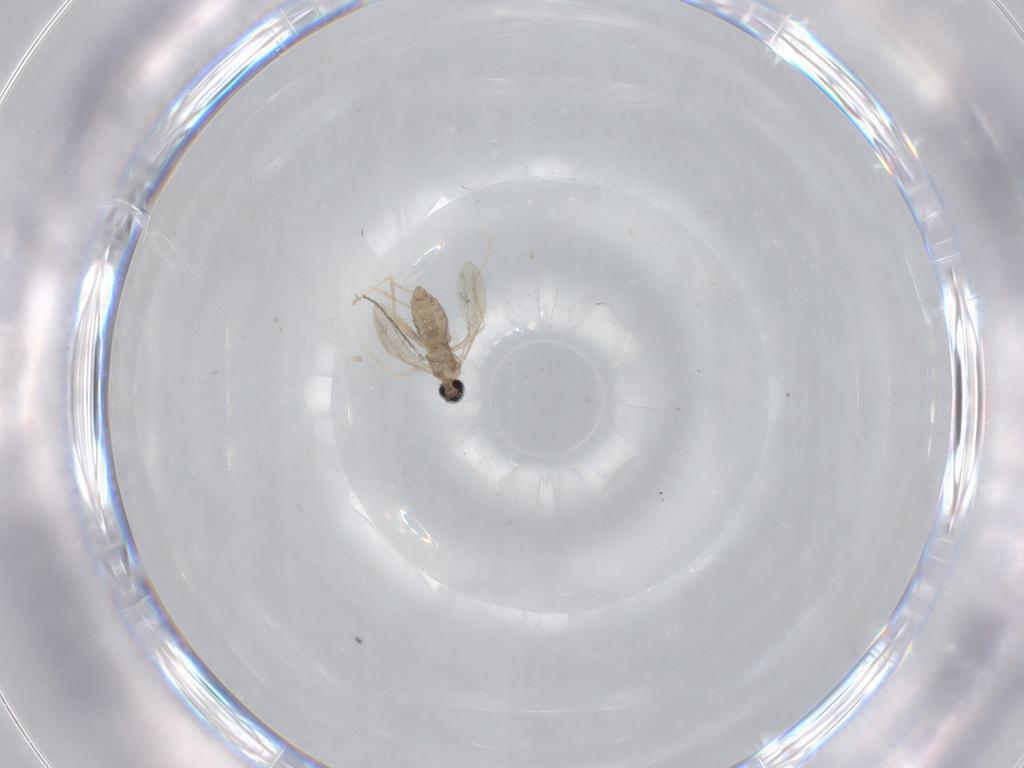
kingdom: Animalia
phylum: Arthropoda
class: Insecta
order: Diptera
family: Cecidomyiidae
